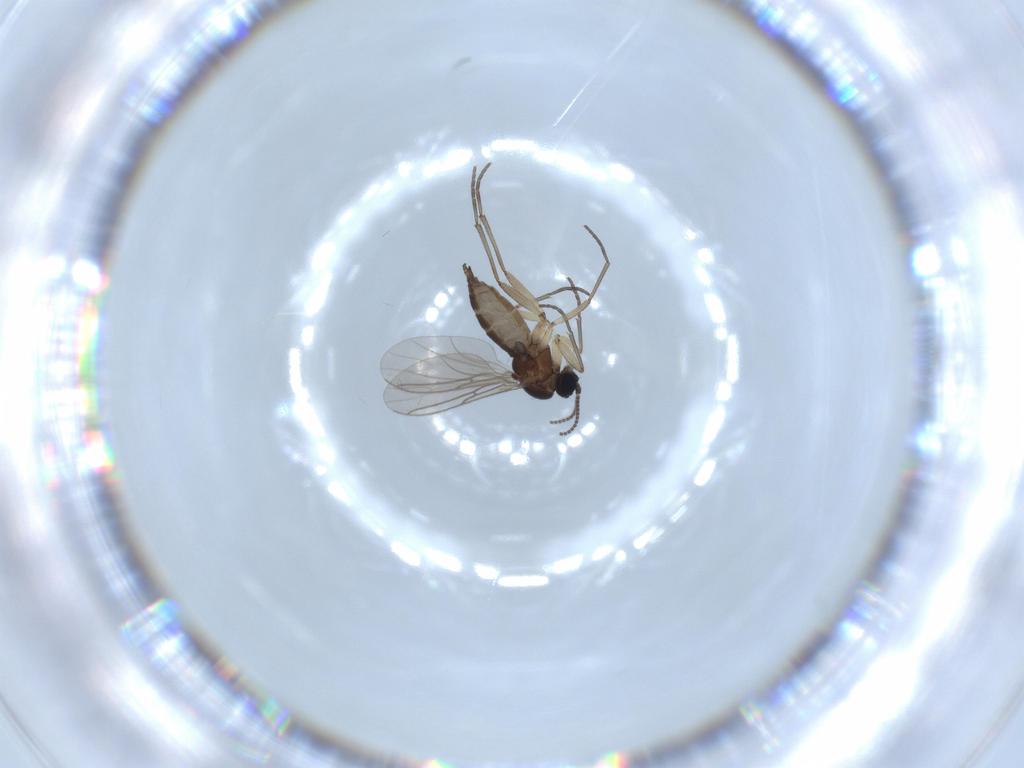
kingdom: Animalia
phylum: Arthropoda
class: Insecta
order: Diptera
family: Sciaridae
